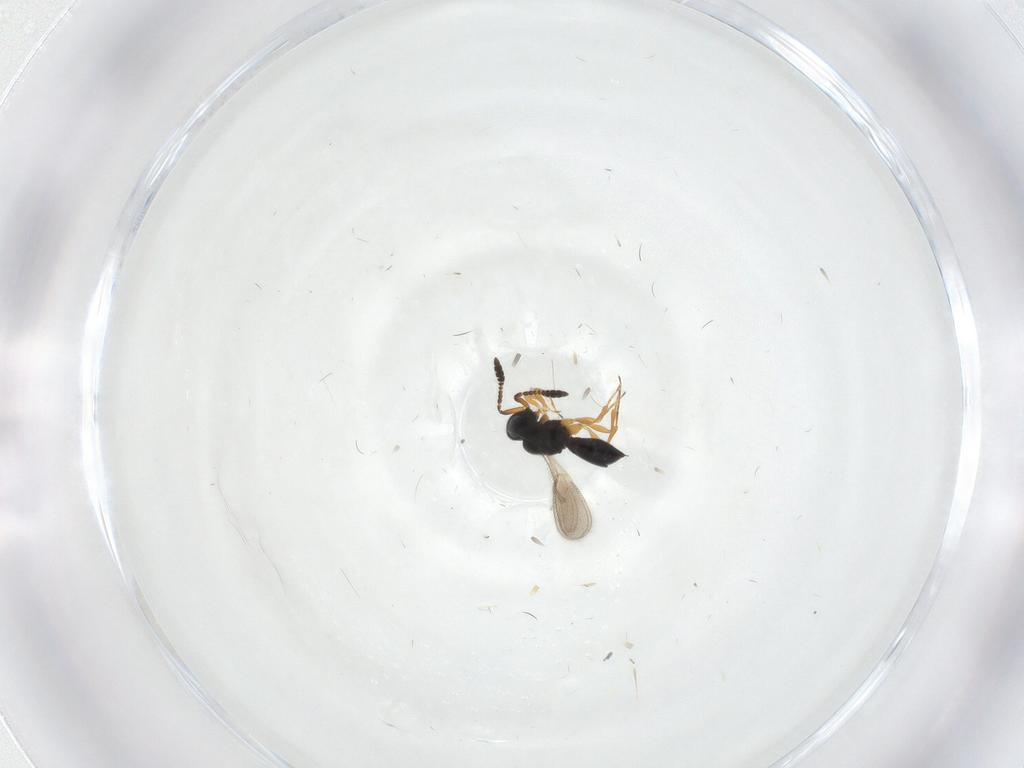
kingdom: Animalia
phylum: Arthropoda
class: Insecta
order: Hymenoptera
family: Scelionidae
